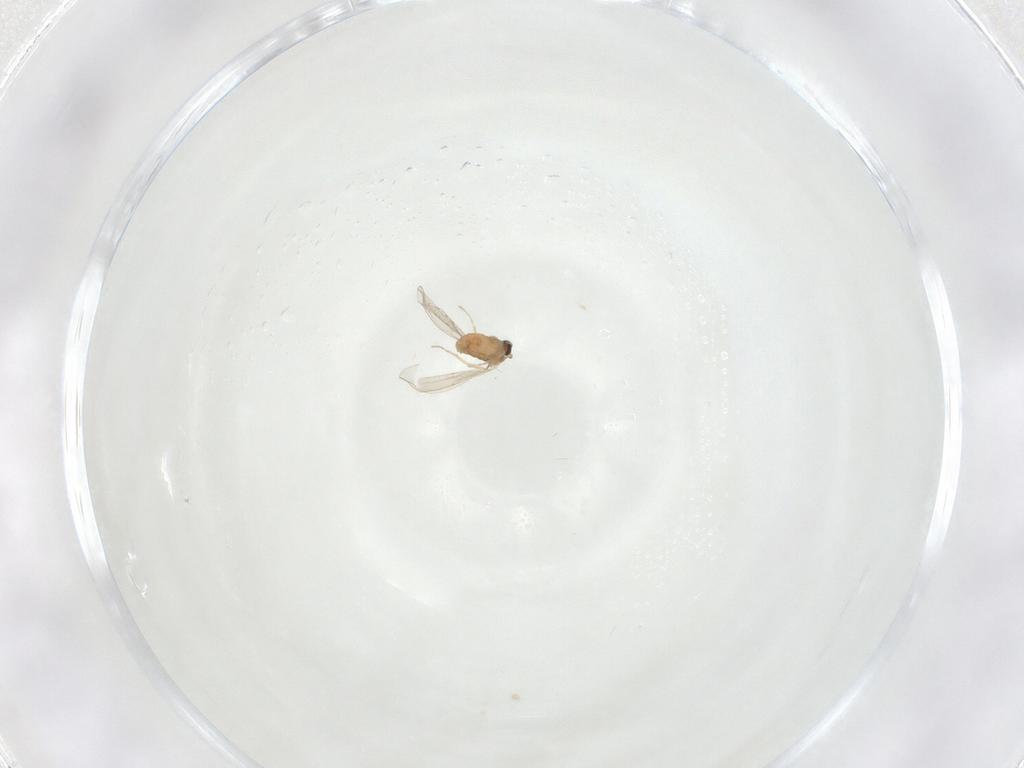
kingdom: Animalia
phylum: Arthropoda
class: Insecta
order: Diptera
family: Cecidomyiidae
